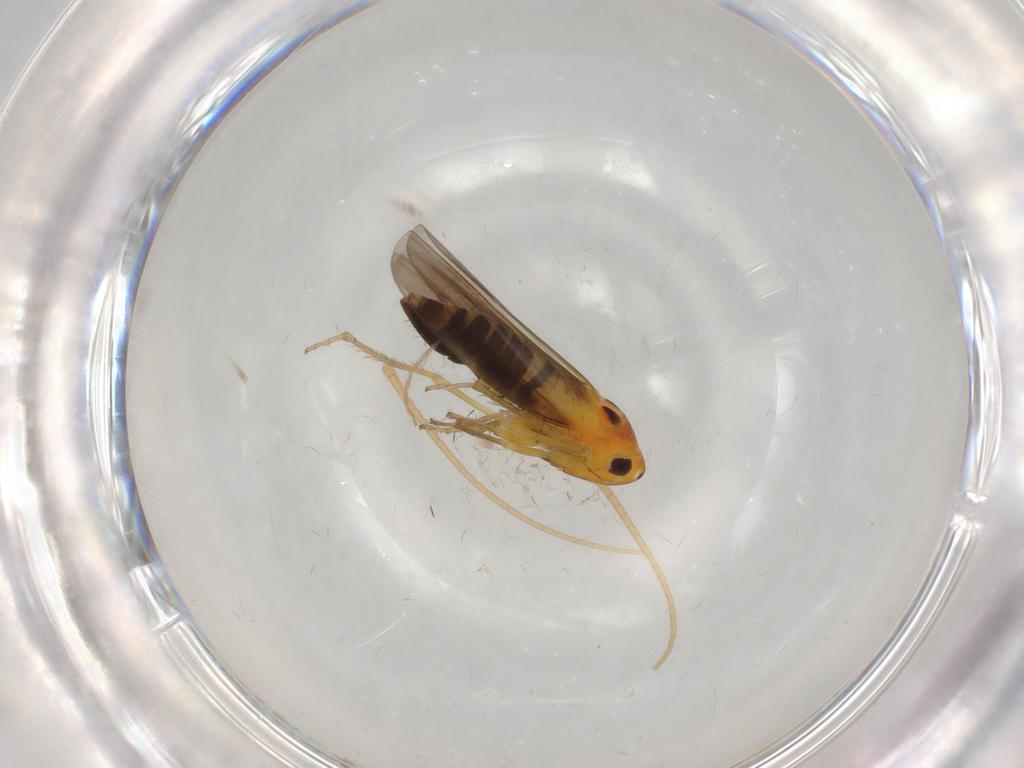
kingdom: Animalia
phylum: Arthropoda
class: Insecta
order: Hemiptera
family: Cicadellidae
